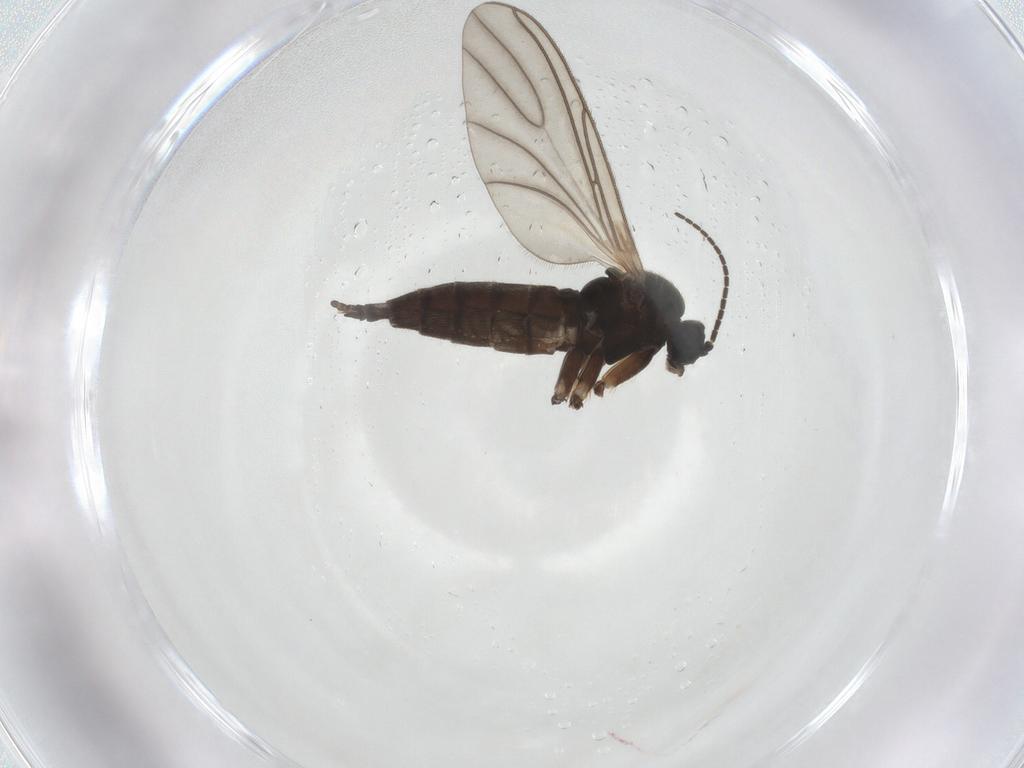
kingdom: Animalia
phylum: Arthropoda
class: Insecta
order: Diptera
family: Sciaridae
